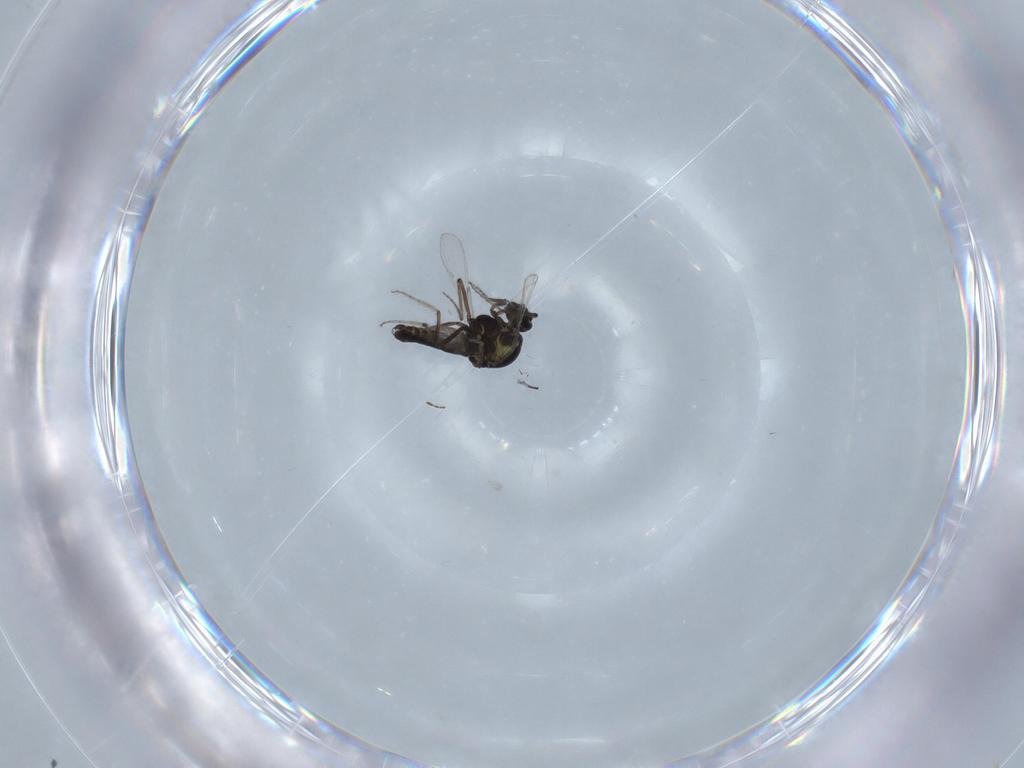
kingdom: Animalia
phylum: Arthropoda
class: Insecta
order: Diptera
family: Ceratopogonidae
